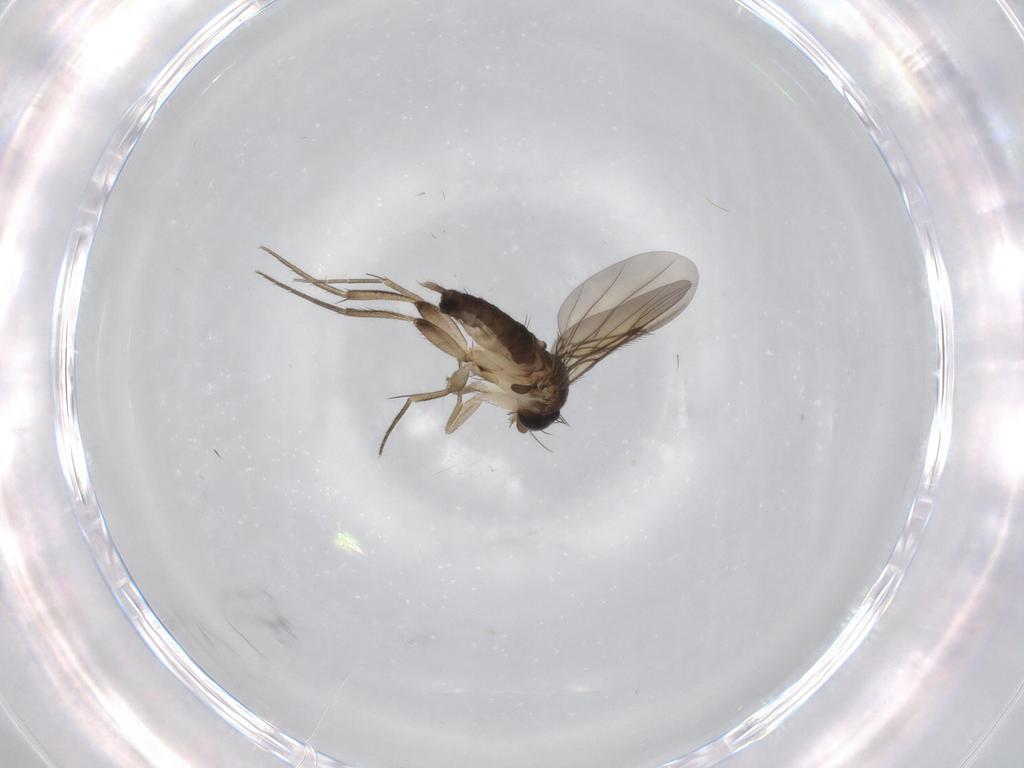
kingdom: Animalia
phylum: Arthropoda
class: Insecta
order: Diptera
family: Phoridae
